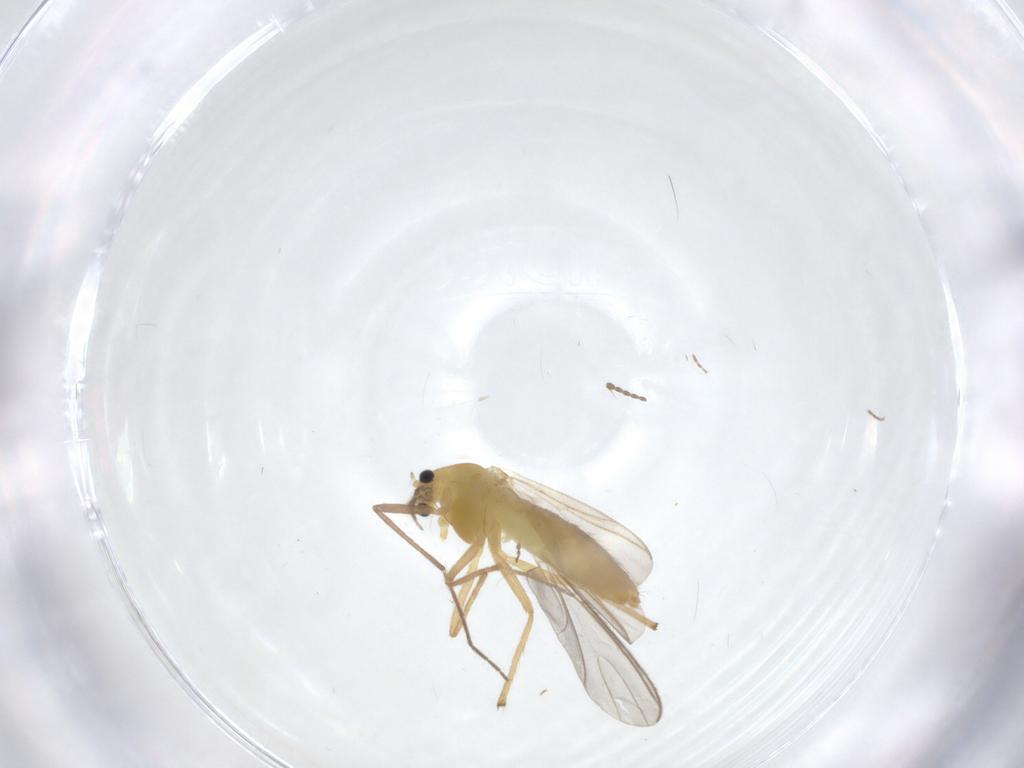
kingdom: Animalia
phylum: Arthropoda
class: Insecta
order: Diptera
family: Chironomidae
